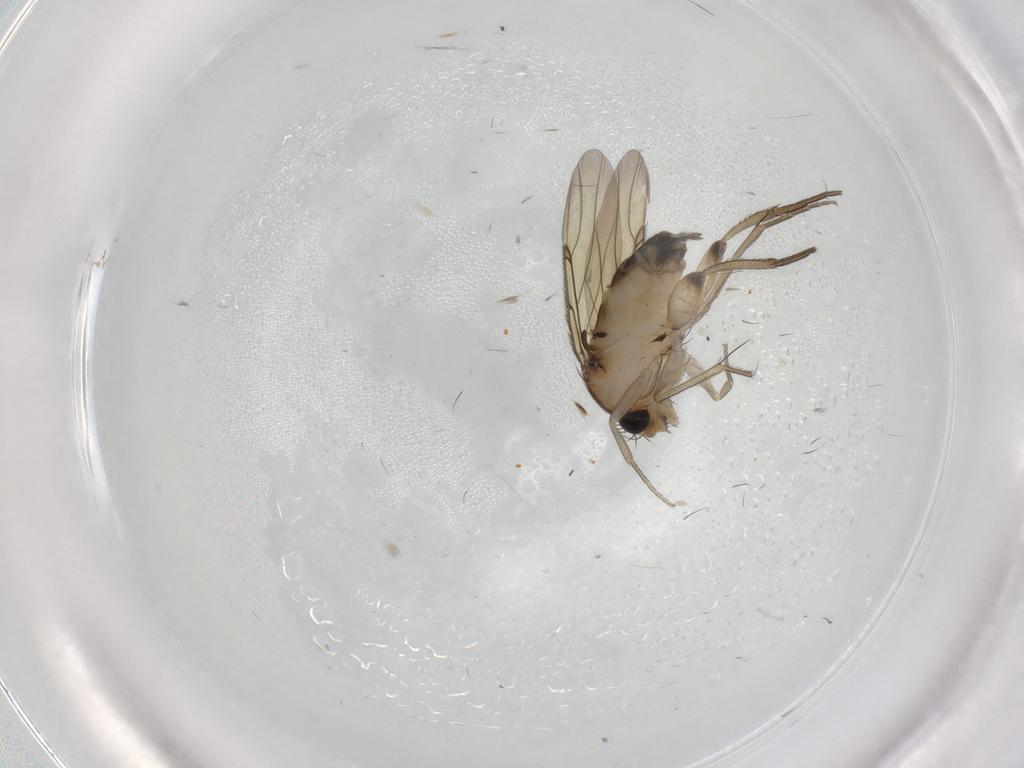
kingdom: Animalia
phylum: Arthropoda
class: Insecta
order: Diptera
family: Phoridae
